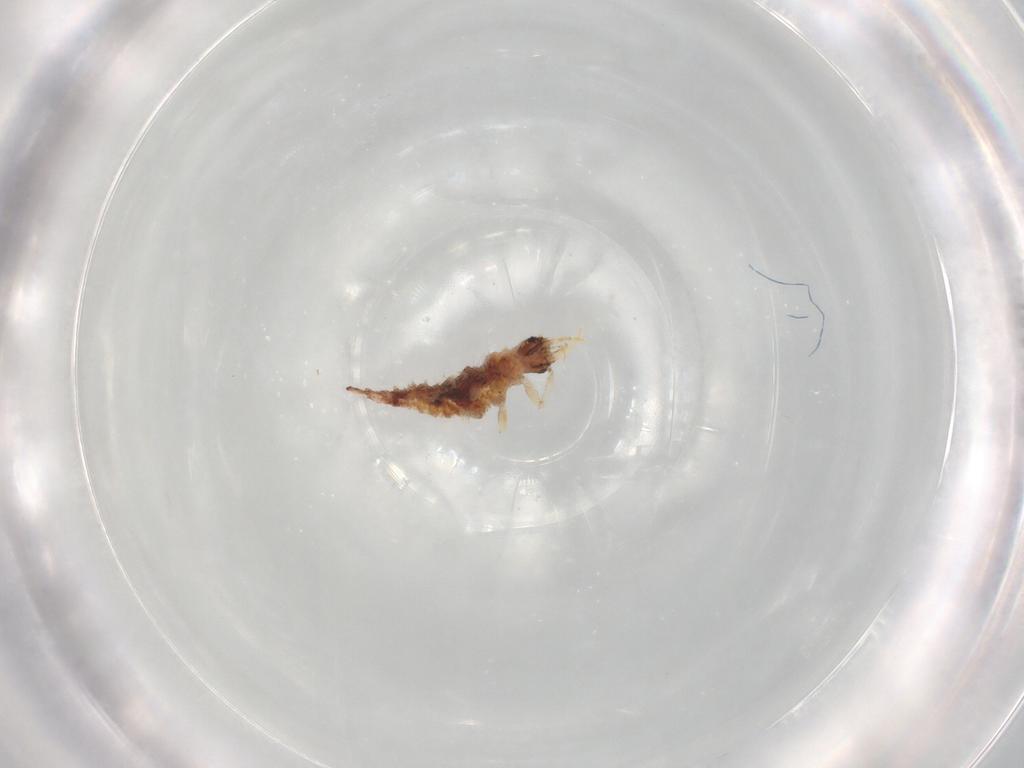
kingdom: Animalia
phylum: Arthropoda
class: Insecta
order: Neuroptera
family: Chrysopidae
